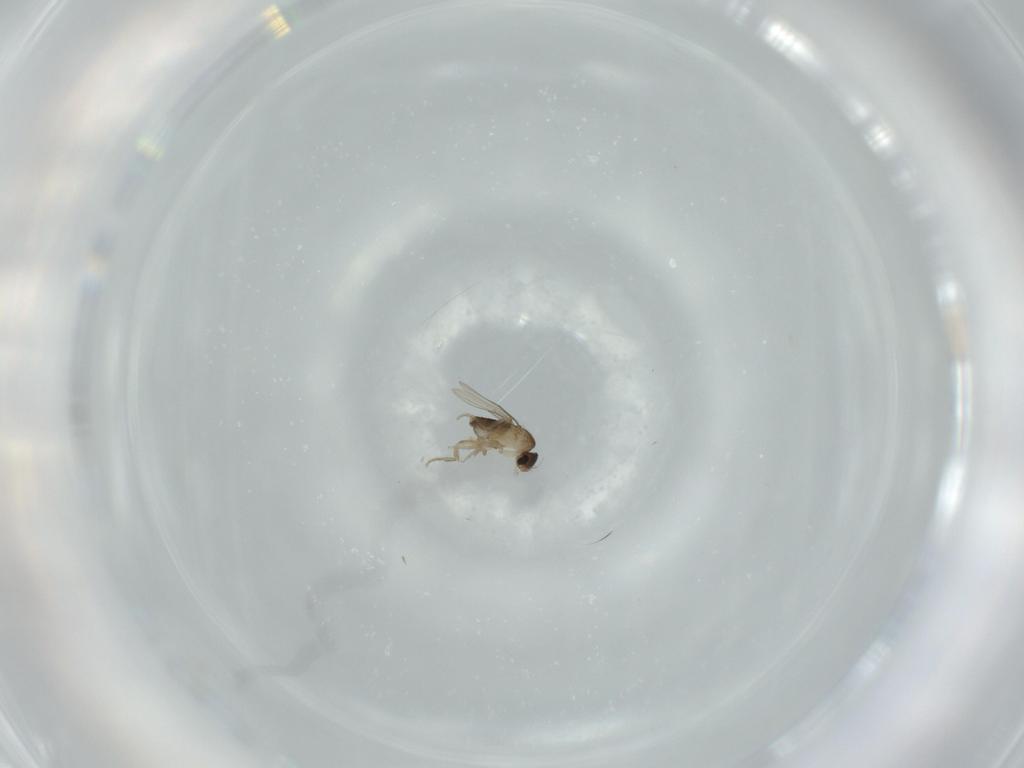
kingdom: Animalia
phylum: Arthropoda
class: Insecta
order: Diptera
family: Phoridae
